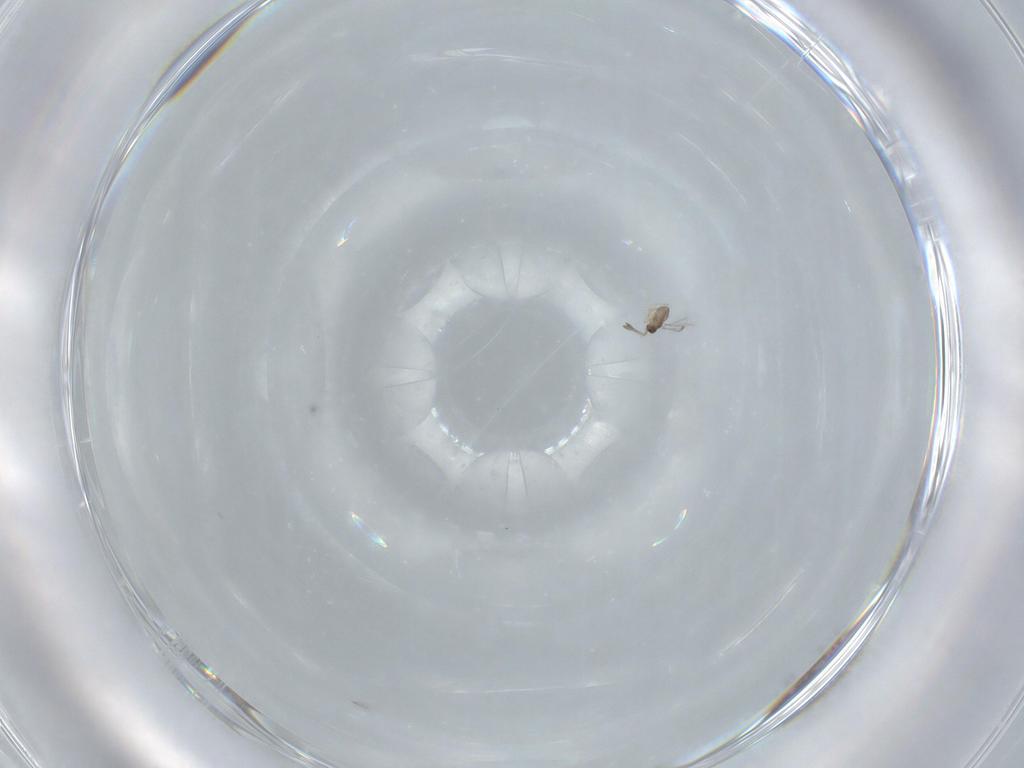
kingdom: Animalia
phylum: Arthropoda
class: Insecta
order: Hymenoptera
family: Mymaridae
